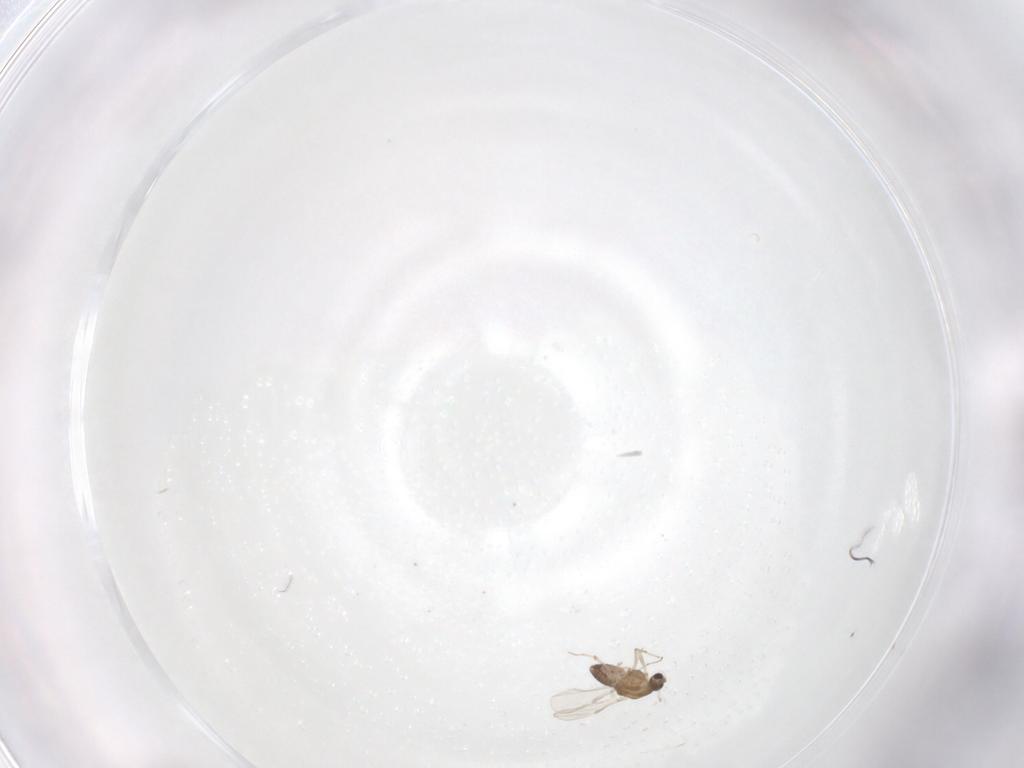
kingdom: Animalia
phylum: Arthropoda
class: Insecta
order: Diptera
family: Chironomidae
